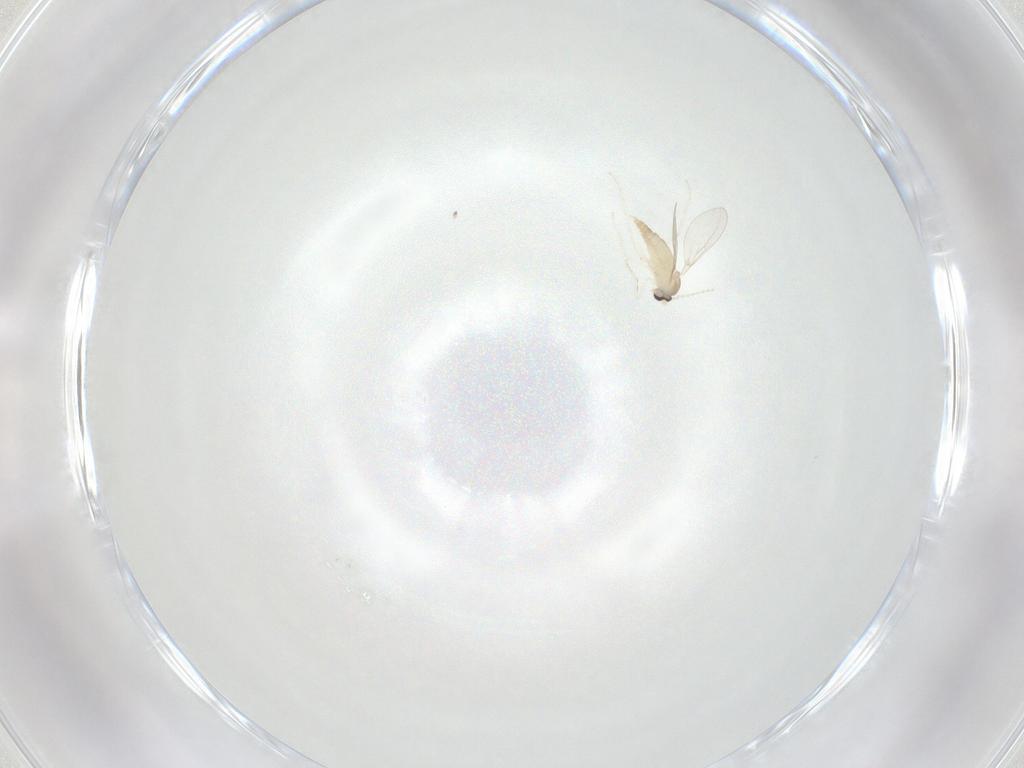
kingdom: Animalia
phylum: Arthropoda
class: Insecta
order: Diptera
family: Cecidomyiidae
